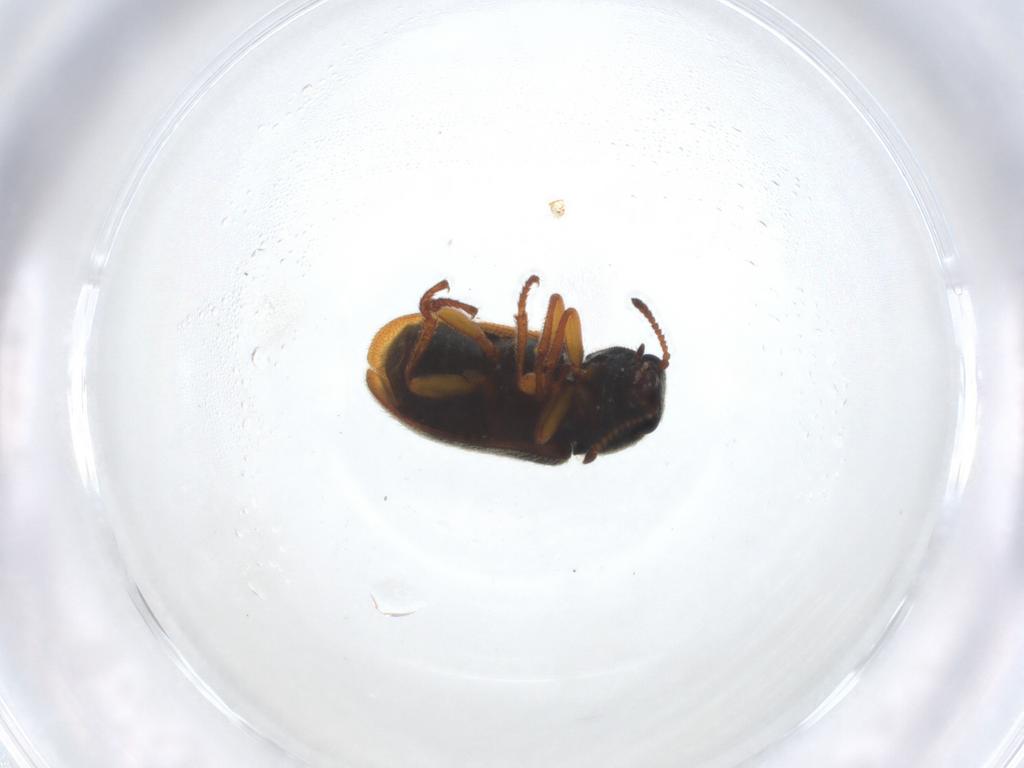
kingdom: Animalia
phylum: Arthropoda
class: Insecta
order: Coleoptera
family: Melyridae
